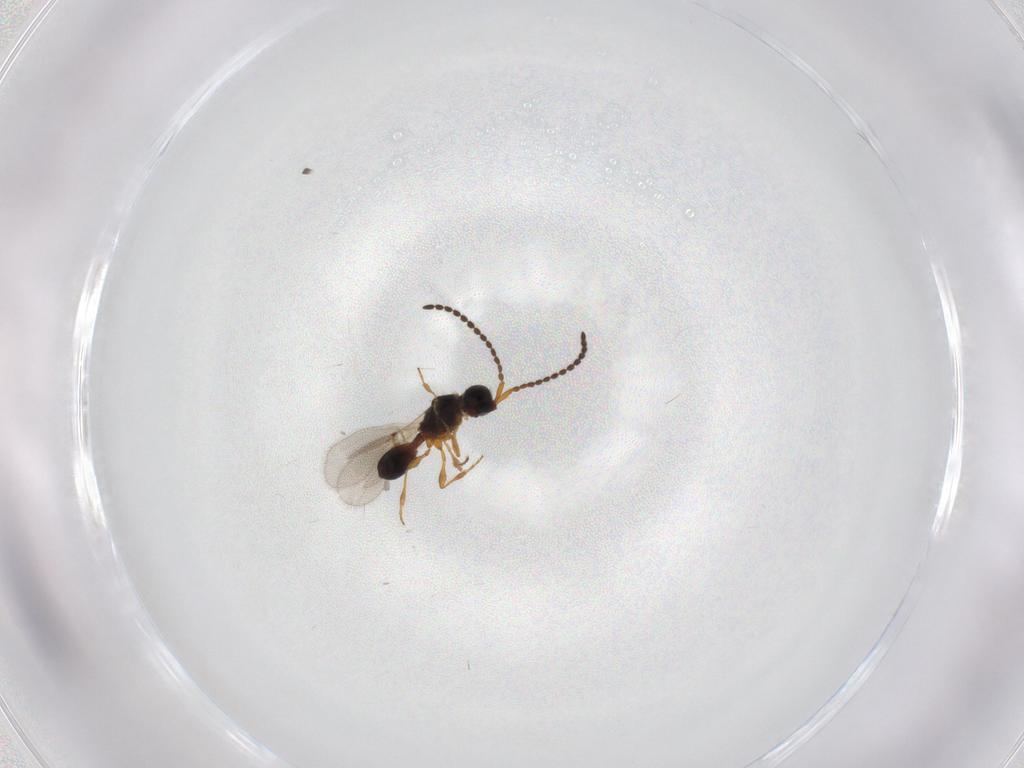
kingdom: Animalia
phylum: Arthropoda
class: Insecta
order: Hymenoptera
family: Diapriidae
